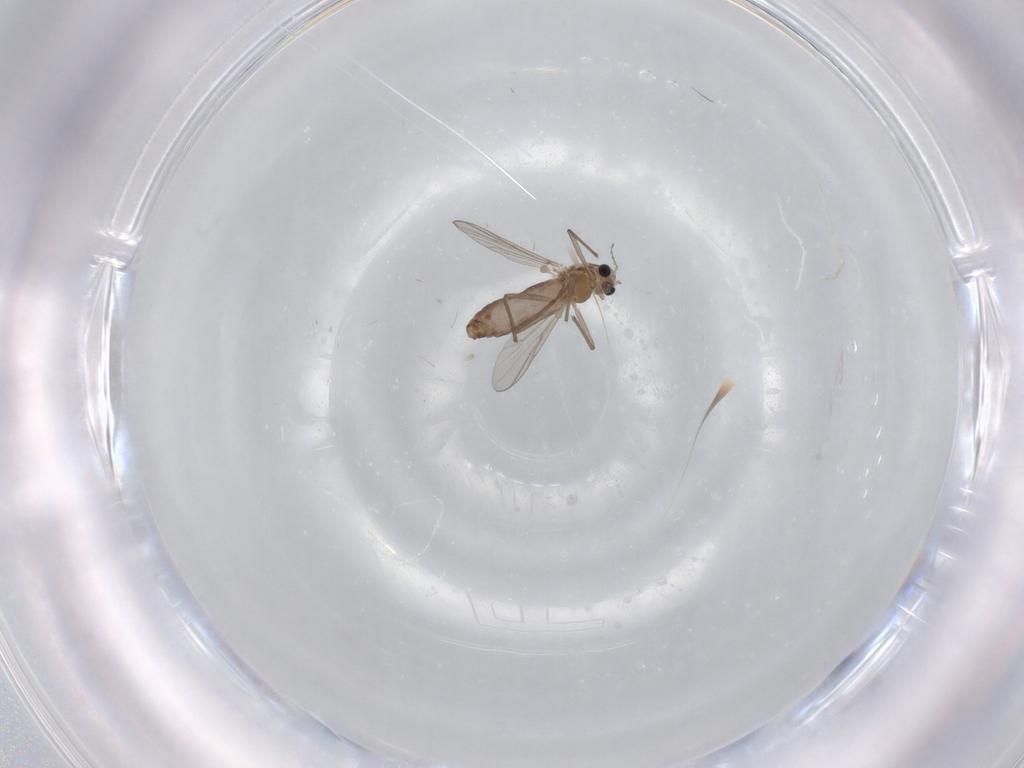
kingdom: Animalia
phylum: Arthropoda
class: Insecta
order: Diptera
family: Chironomidae
